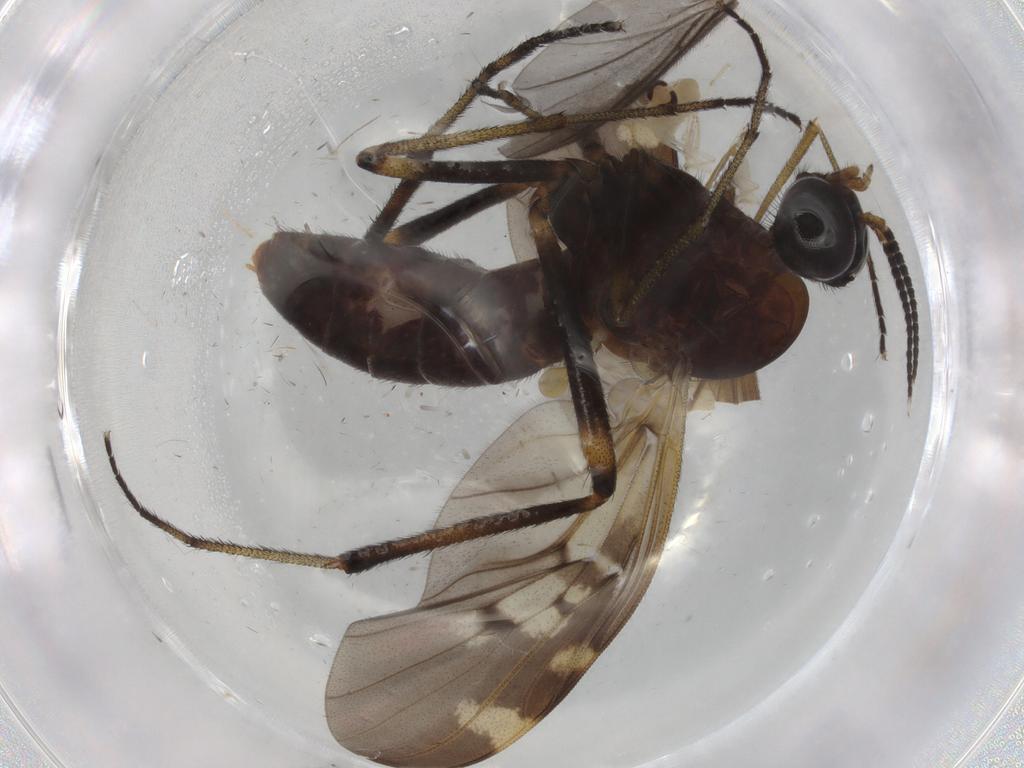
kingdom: Animalia
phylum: Arthropoda
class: Insecta
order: Diptera
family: Cecidomyiidae
